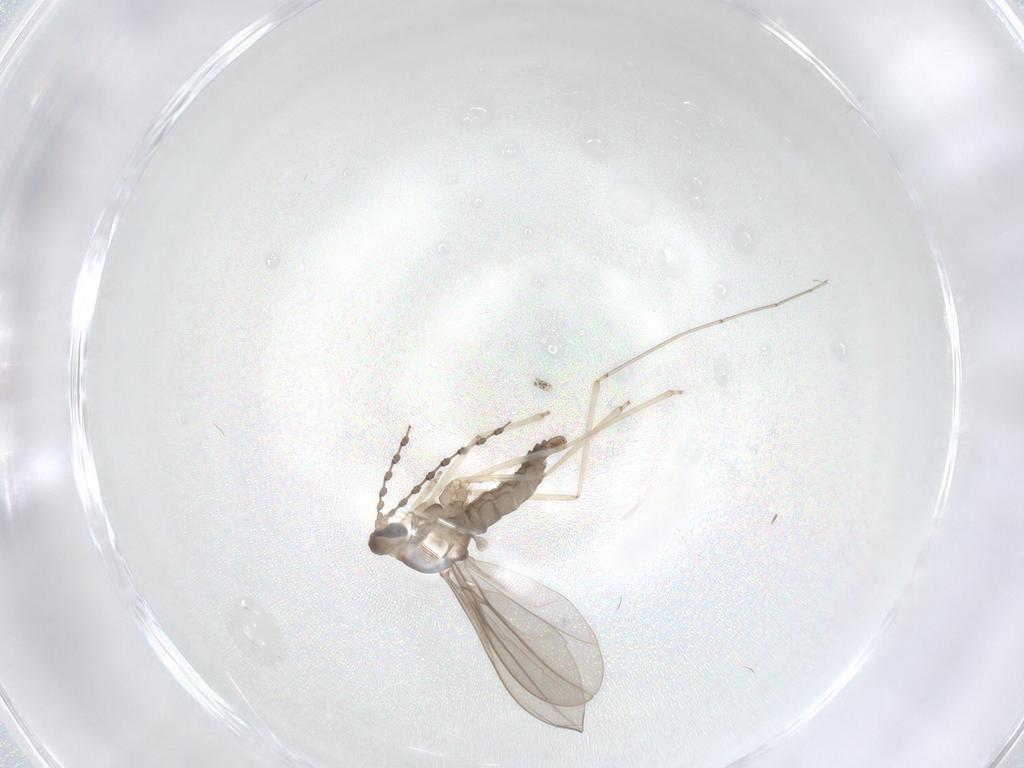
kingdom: Animalia
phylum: Arthropoda
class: Insecta
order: Diptera
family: Cecidomyiidae
